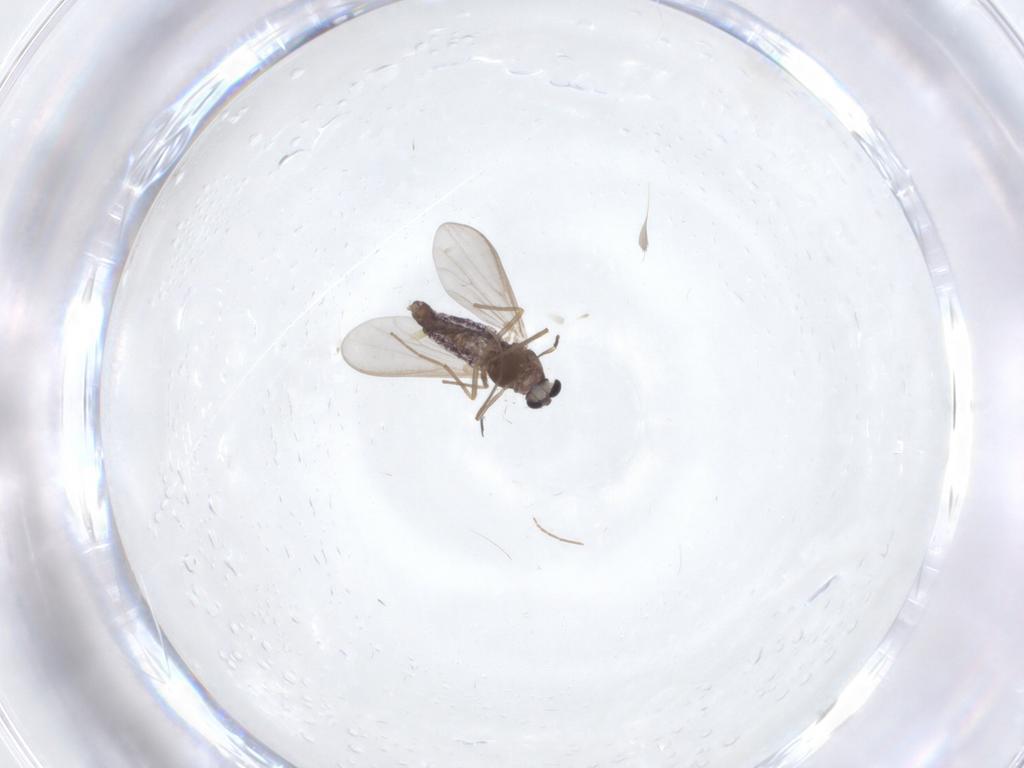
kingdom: Animalia
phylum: Arthropoda
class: Insecta
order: Diptera
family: Chironomidae
